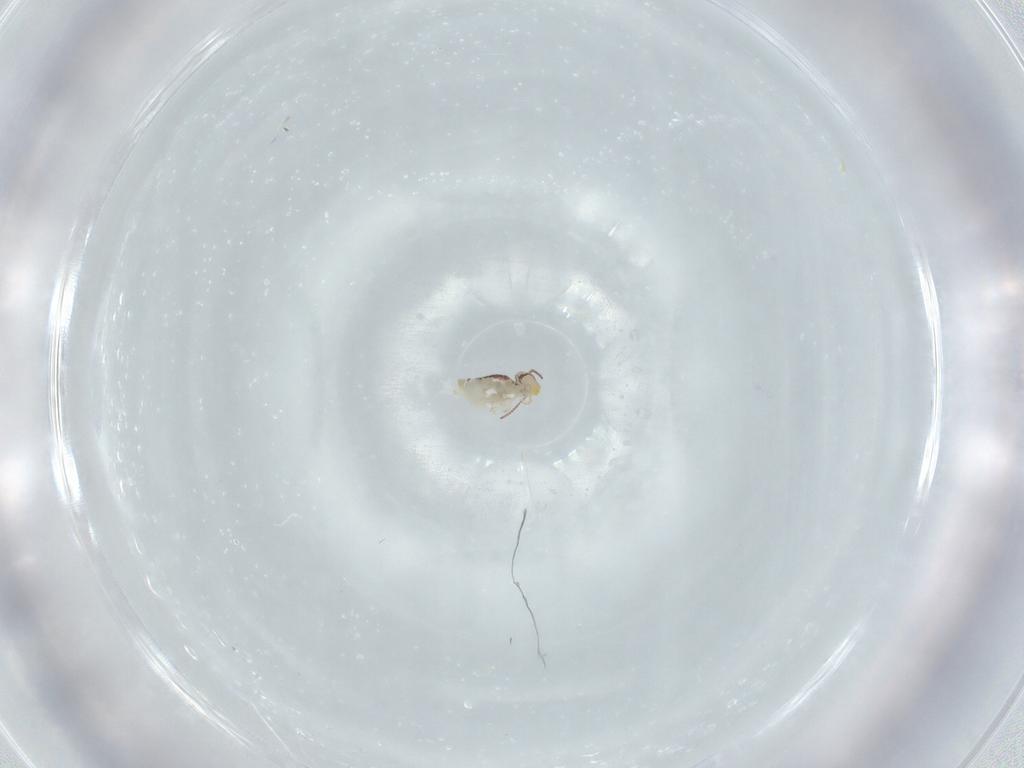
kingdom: Animalia
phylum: Arthropoda
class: Collembola
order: Symphypleona
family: Bourletiellidae
